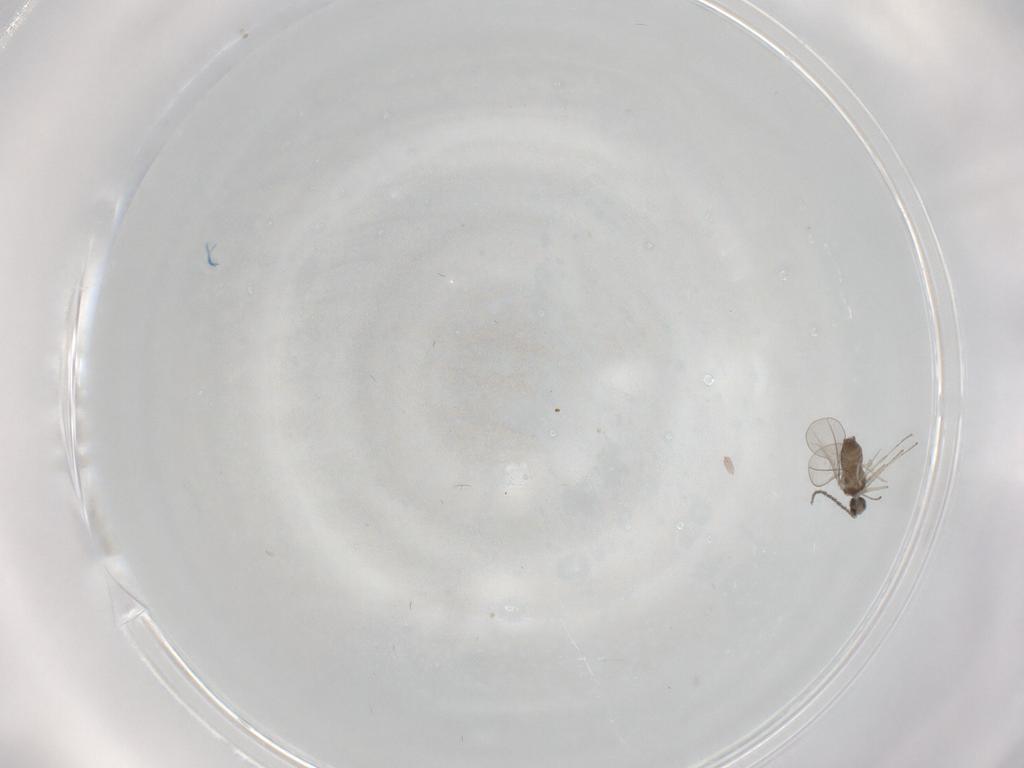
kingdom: Animalia
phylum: Arthropoda
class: Insecta
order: Diptera
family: Cecidomyiidae
